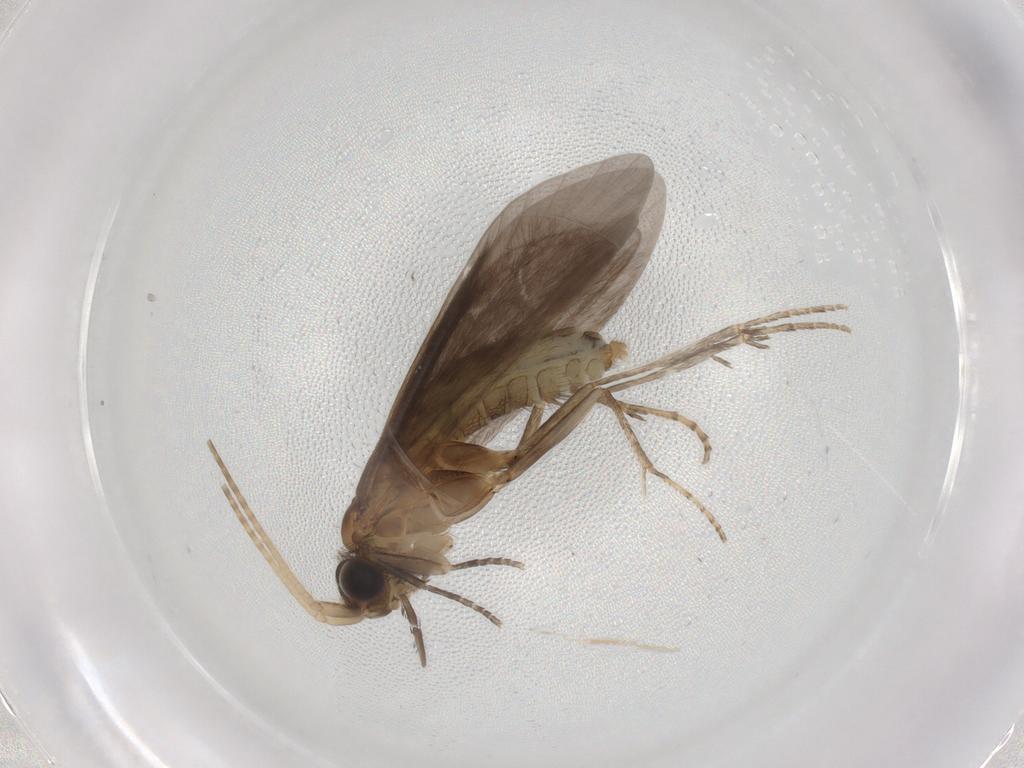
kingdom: Animalia
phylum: Arthropoda
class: Insecta
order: Trichoptera
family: Helicopsychidae
